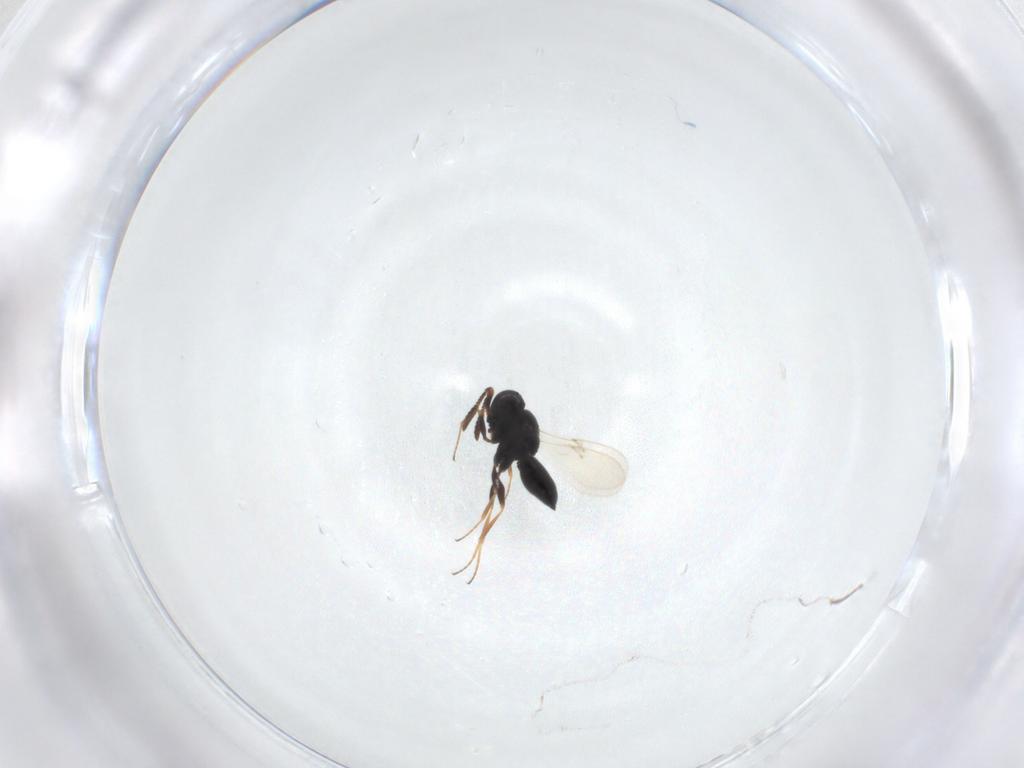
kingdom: Animalia
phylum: Arthropoda
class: Insecta
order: Hymenoptera
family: Scelionidae
